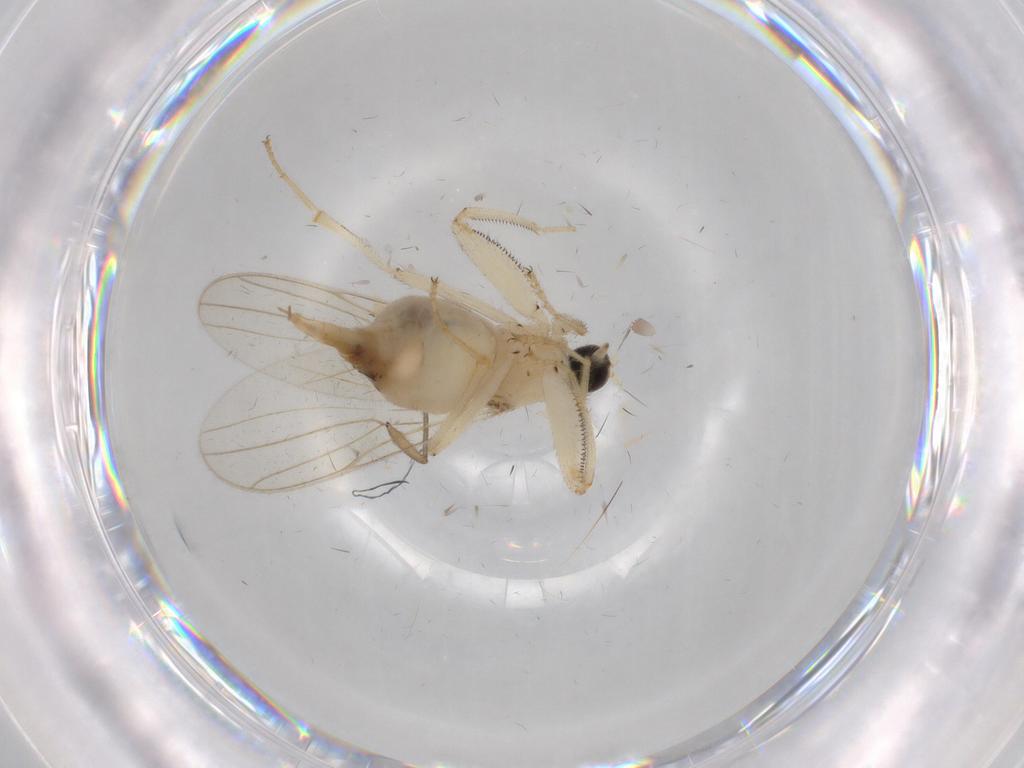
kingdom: Animalia
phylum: Arthropoda
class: Insecta
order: Diptera
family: Hybotidae
